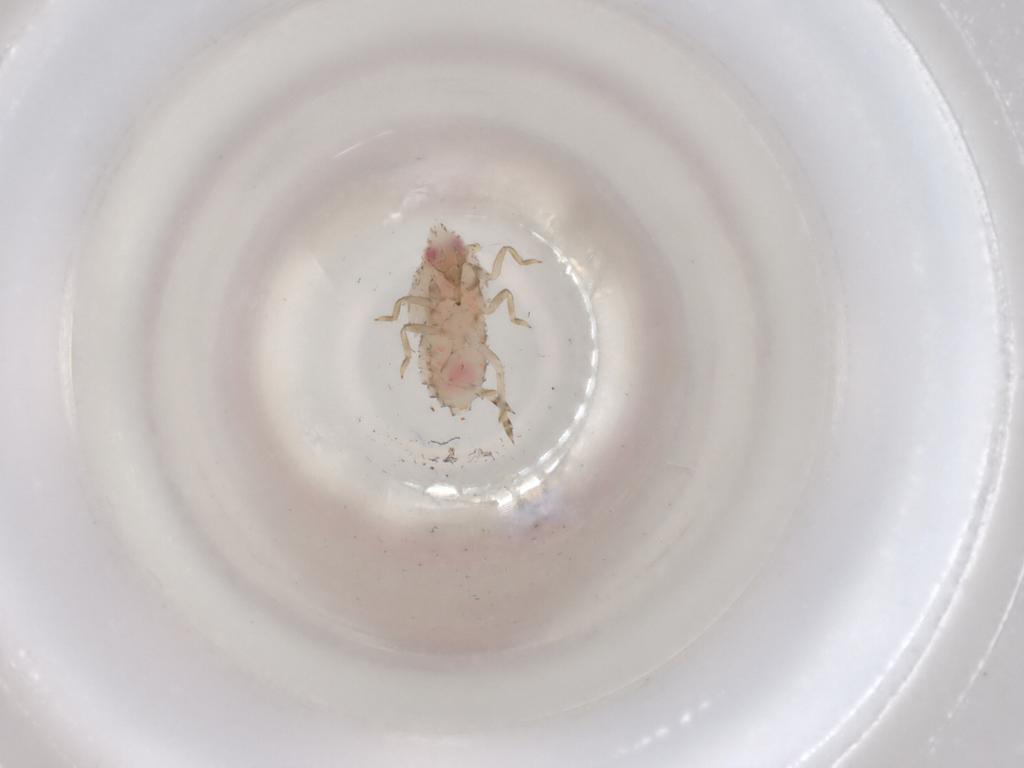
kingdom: Animalia
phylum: Arthropoda
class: Insecta
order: Hemiptera
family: Delphacidae
